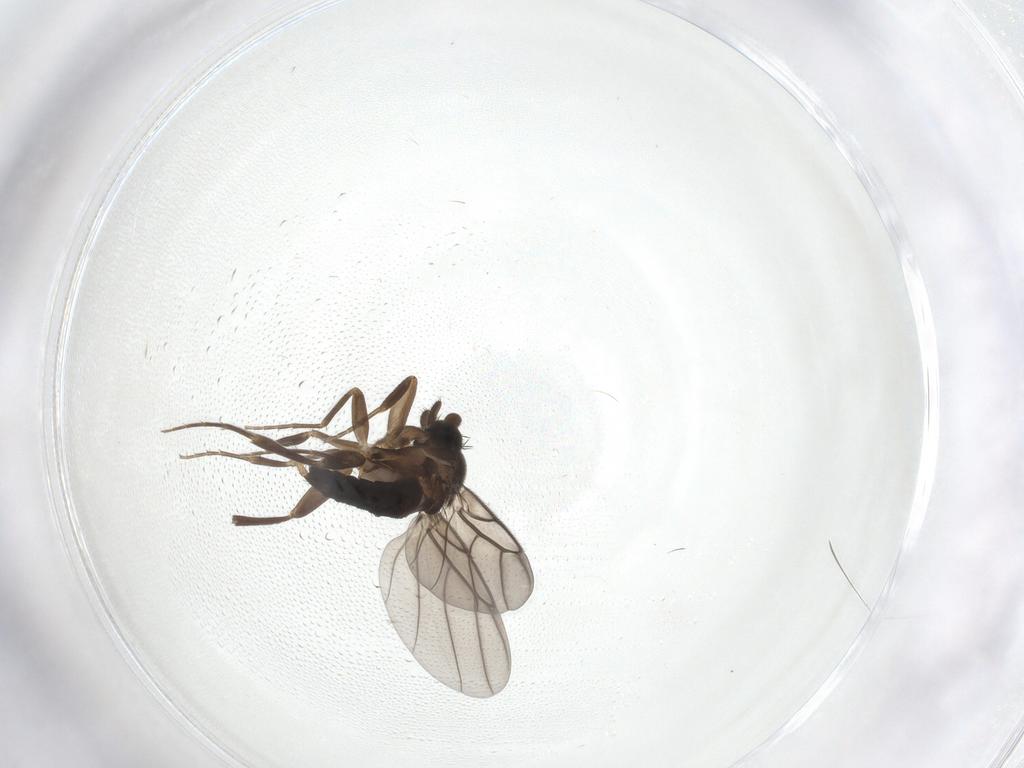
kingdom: Animalia
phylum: Arthropoda
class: Insecta
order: Diptera
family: Phoridae
